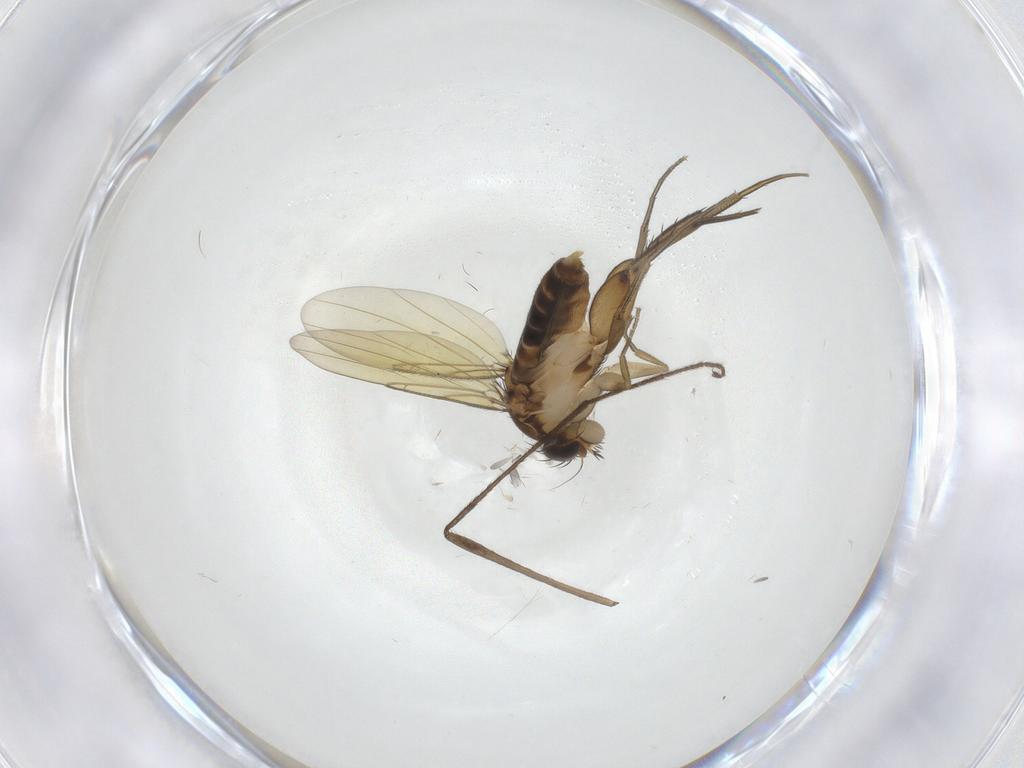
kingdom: Animalia
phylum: Arthropoda
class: Insecta
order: Diptera
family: Phoridae
